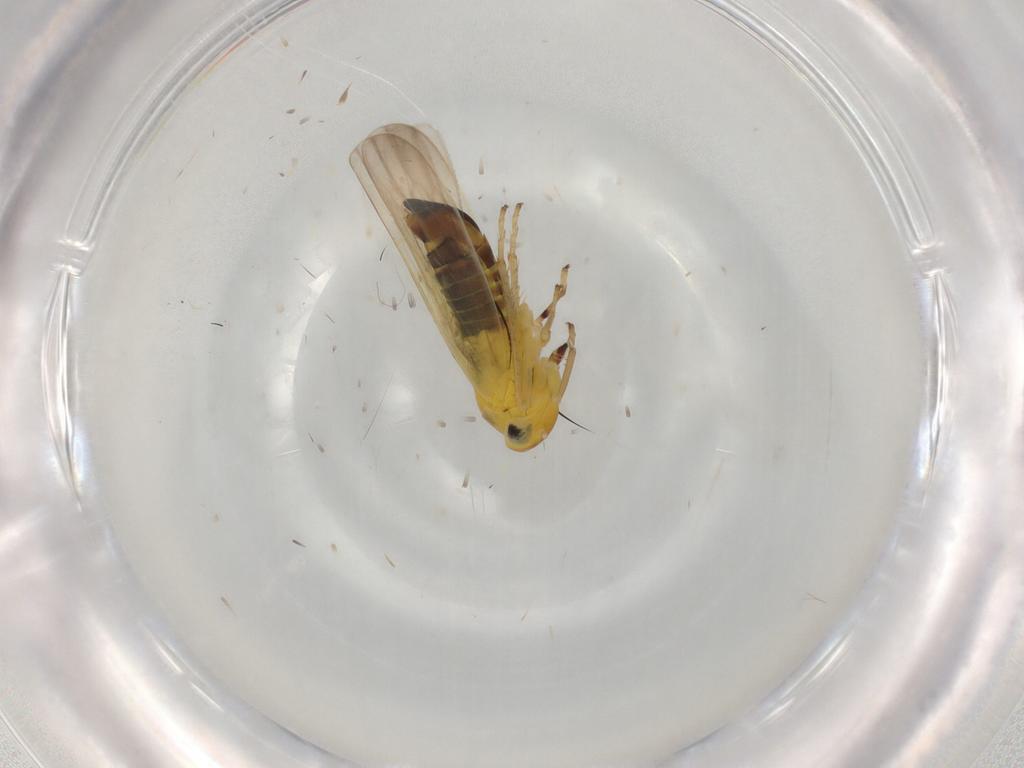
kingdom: Animalia
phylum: Arthropoda
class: Insecta
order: Hemiptera
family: Cicadellidae
